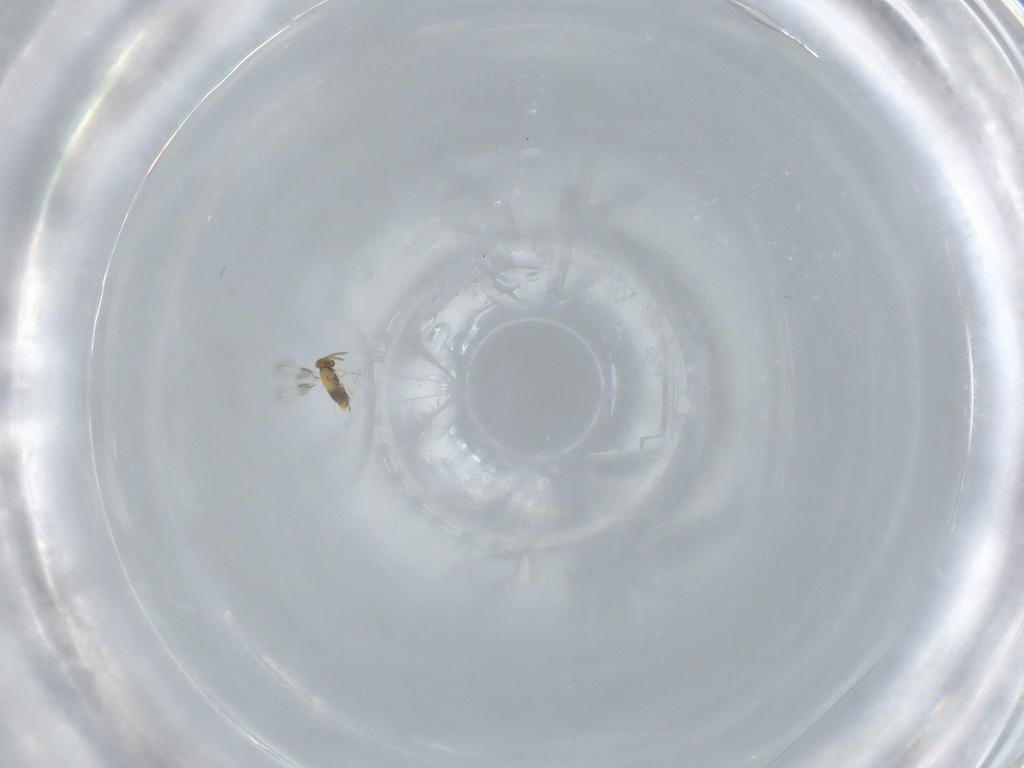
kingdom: Animalia
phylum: Arthropoda
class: Insecta
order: Hymenoptera
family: Aphelinidae
